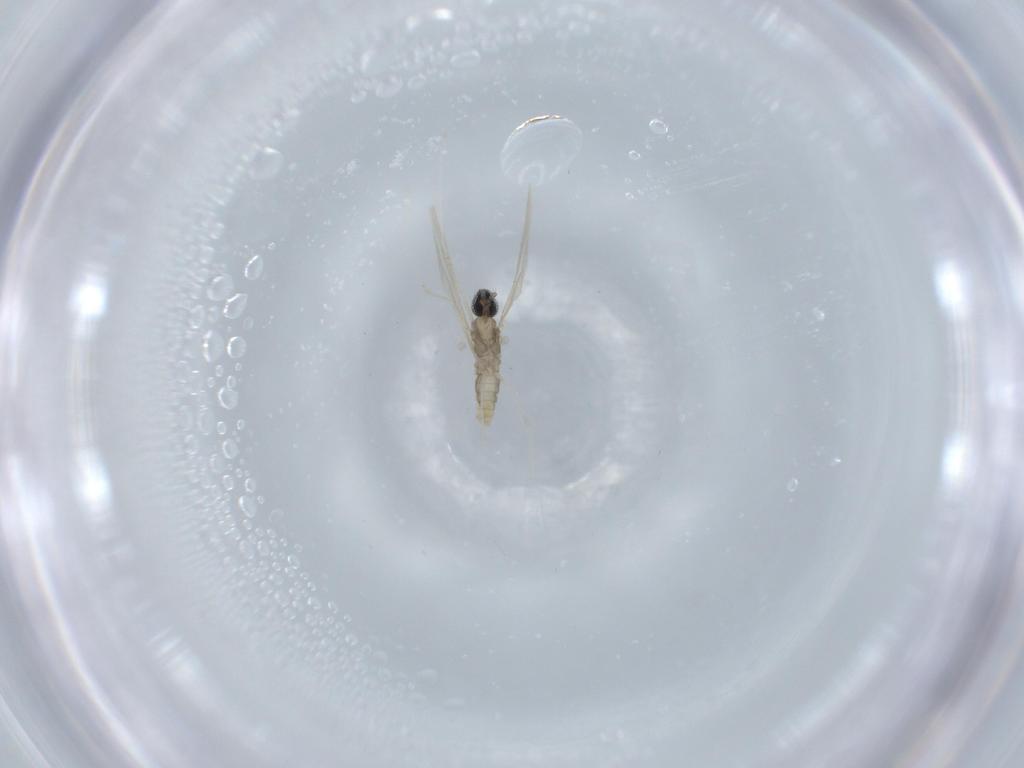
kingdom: Animalia
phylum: Arthropoda
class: Insecta
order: Diptera
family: Cecidomyiidae
